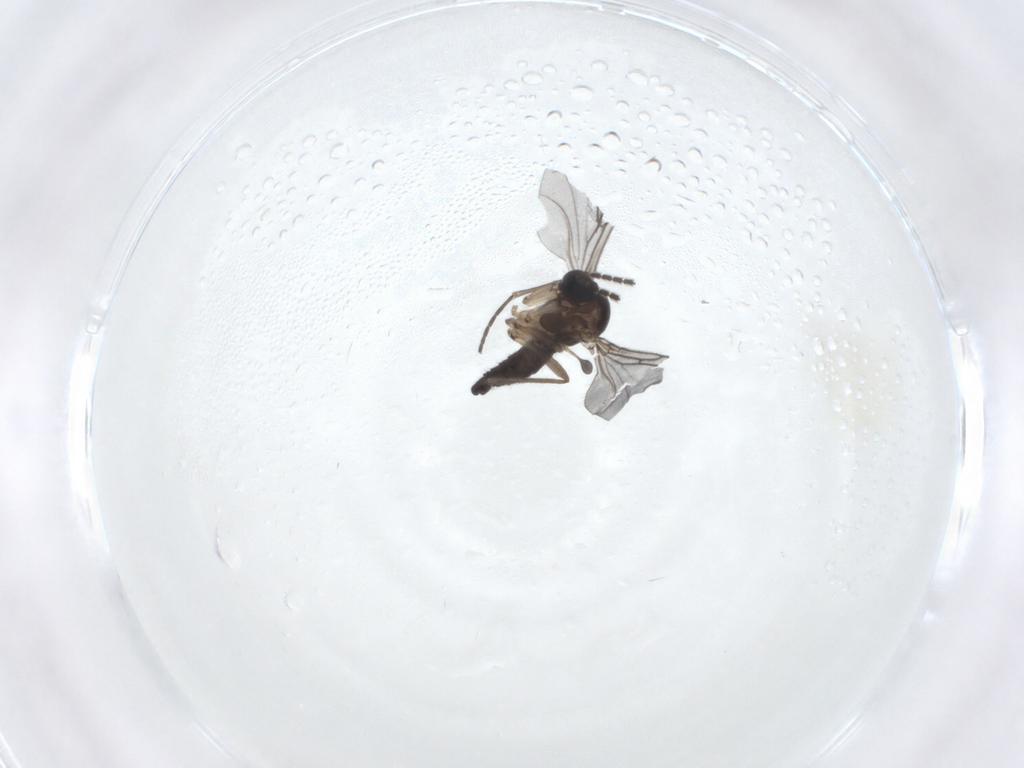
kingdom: Animalia
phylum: Arthropoda
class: Insecta
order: Diptera
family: Sciaridae
